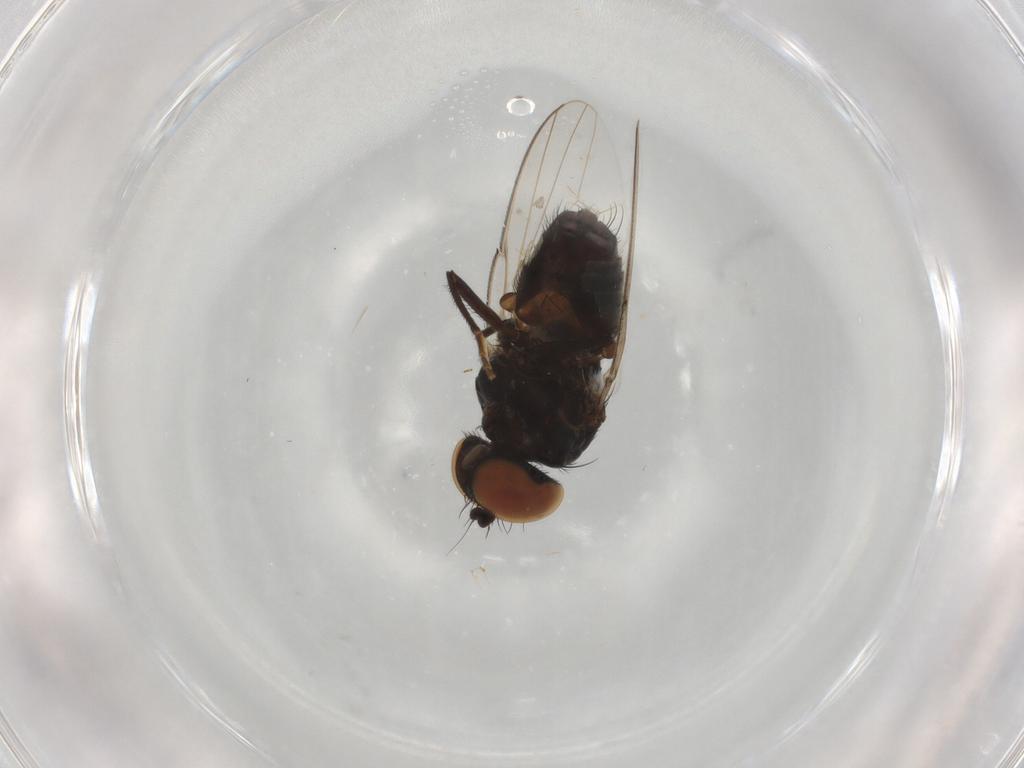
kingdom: Animalia
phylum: Arthropoda
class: Insecta
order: Diptera
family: Milichiidae
